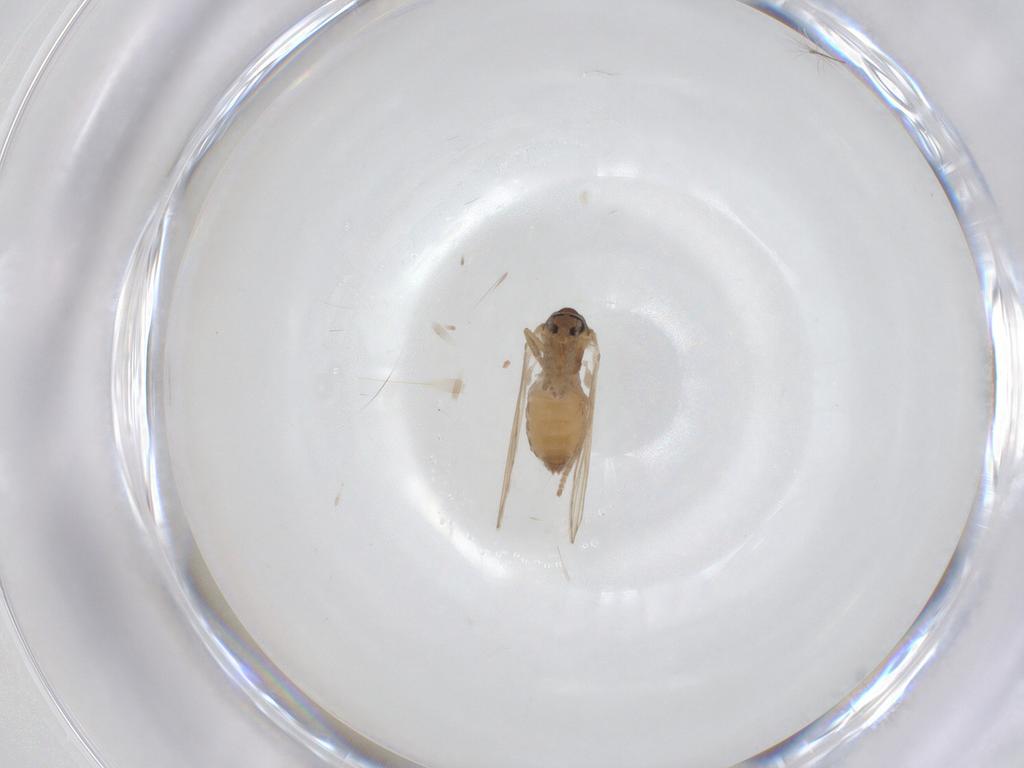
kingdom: Animalia
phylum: Arthropoda
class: Insecta
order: Diptera
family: Psychodidae
